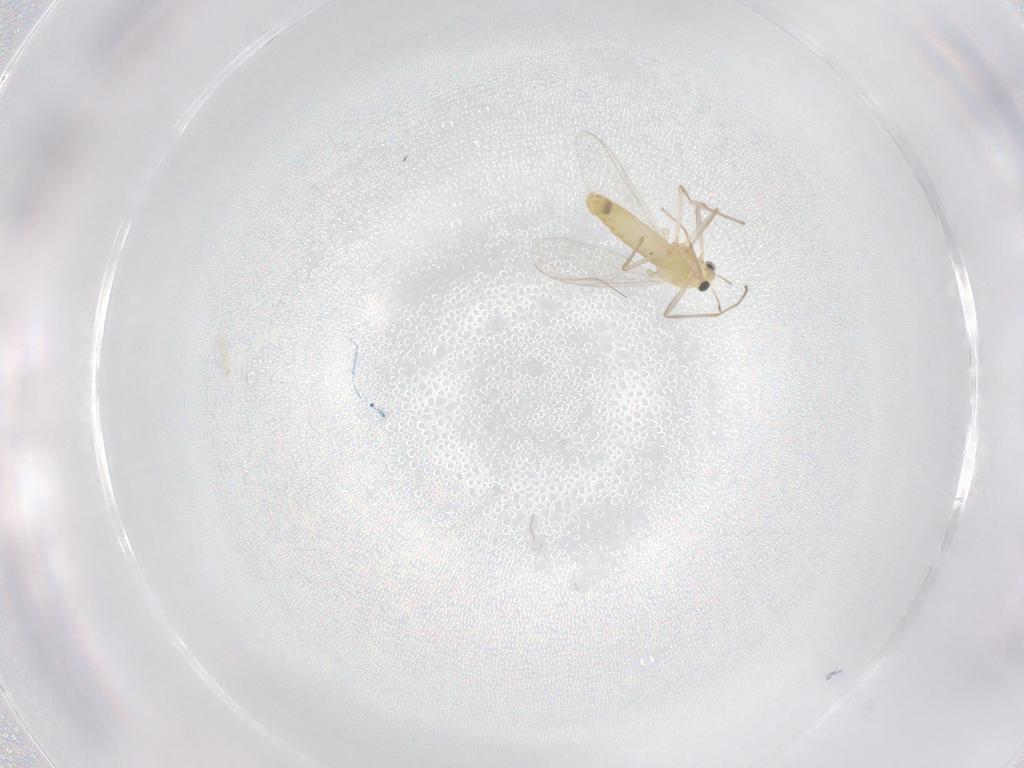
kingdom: Animalia
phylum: Arthropoda
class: Insecta
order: Diptera
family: Chironomidae
